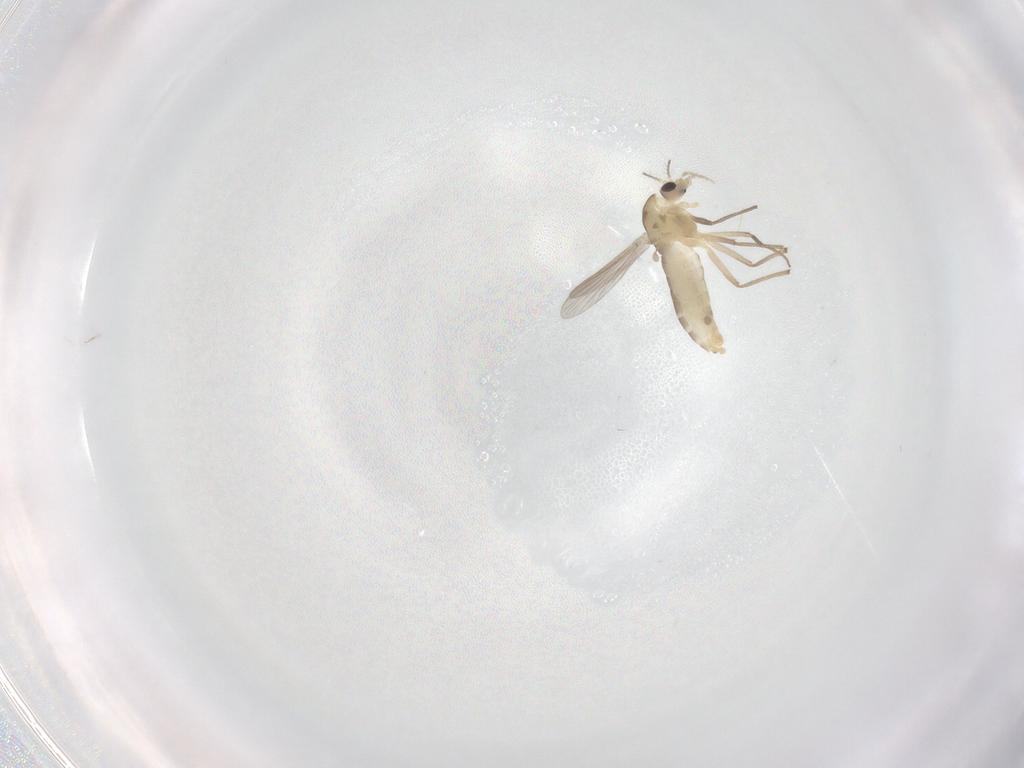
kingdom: Animalia
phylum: Arthropoda
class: Insecta
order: Diptera
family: Chironomidae
